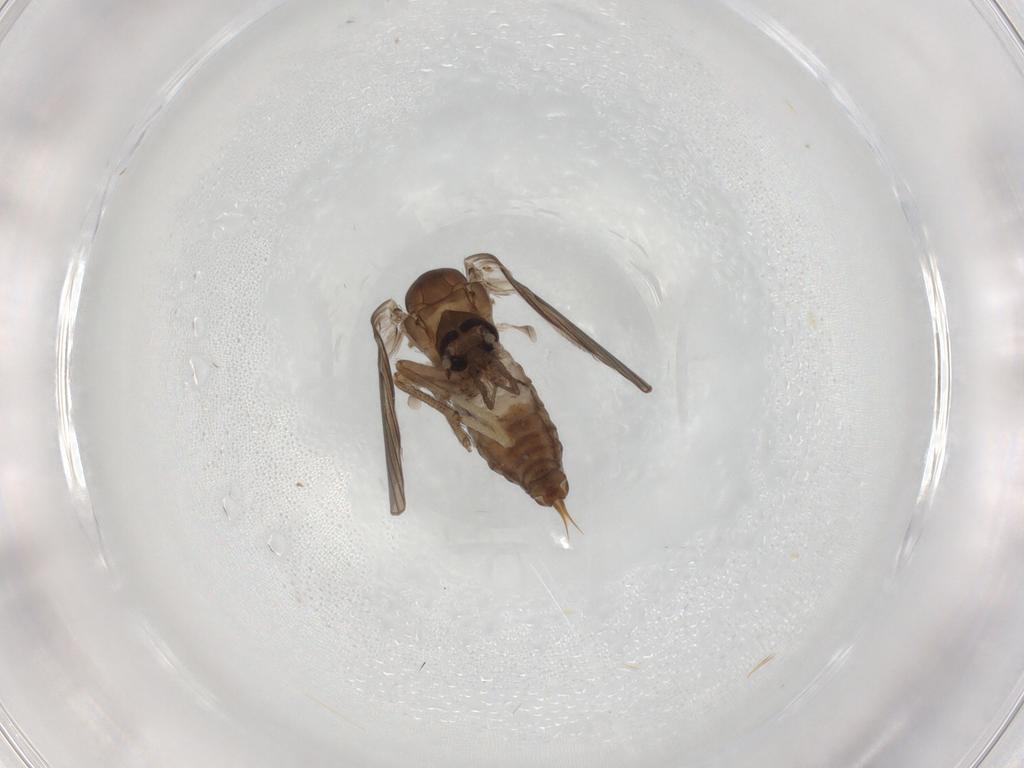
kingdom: Animalia
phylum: Arthropoda
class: Insecta
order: Diptera
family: Psychodidae
